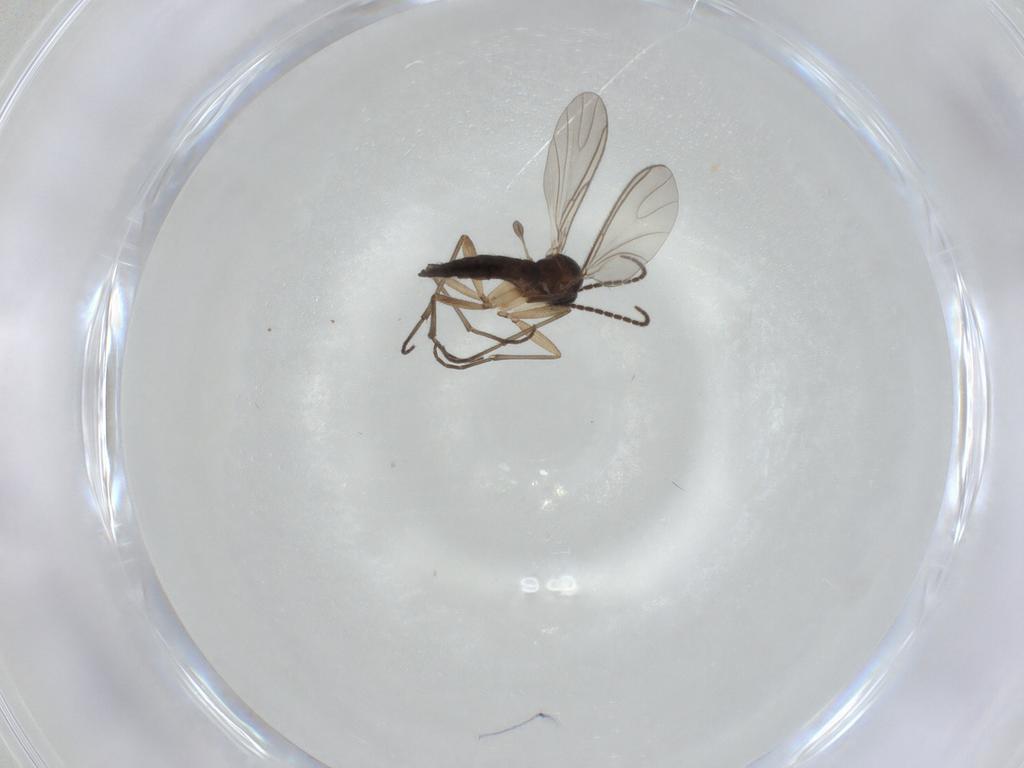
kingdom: Animalia
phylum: Arthropoda
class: Insecta
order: Diptera
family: Sciaridae
